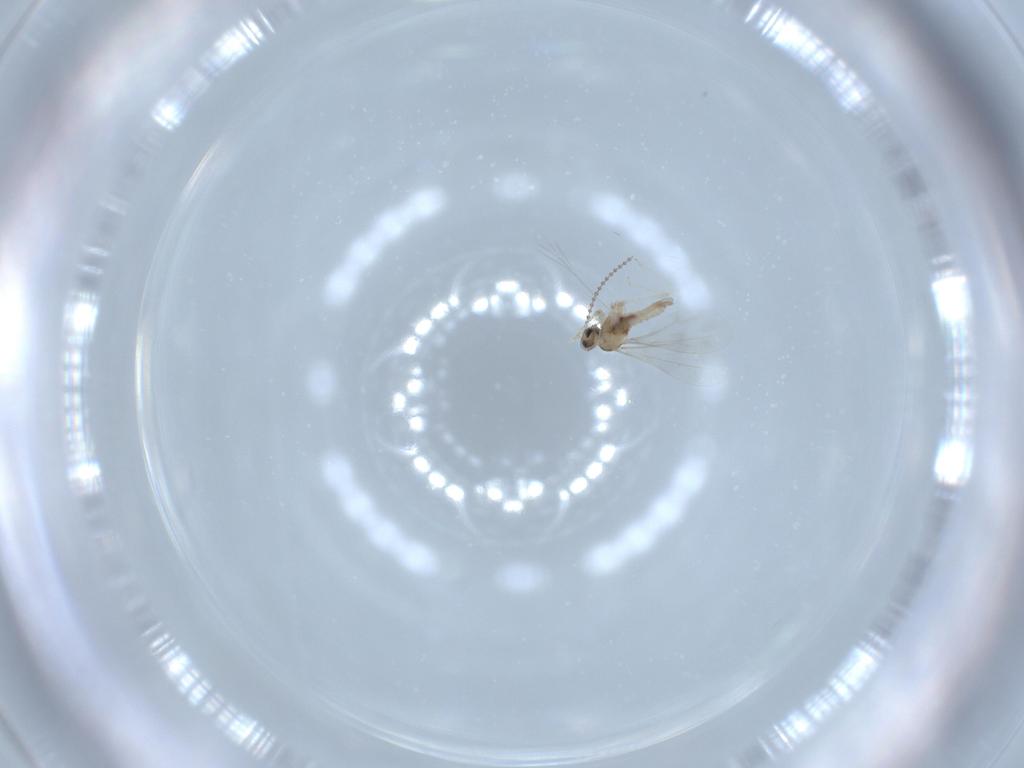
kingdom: Animalia
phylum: Arthropoda
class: Insecta
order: Diptera
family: Cecidomyiidae
